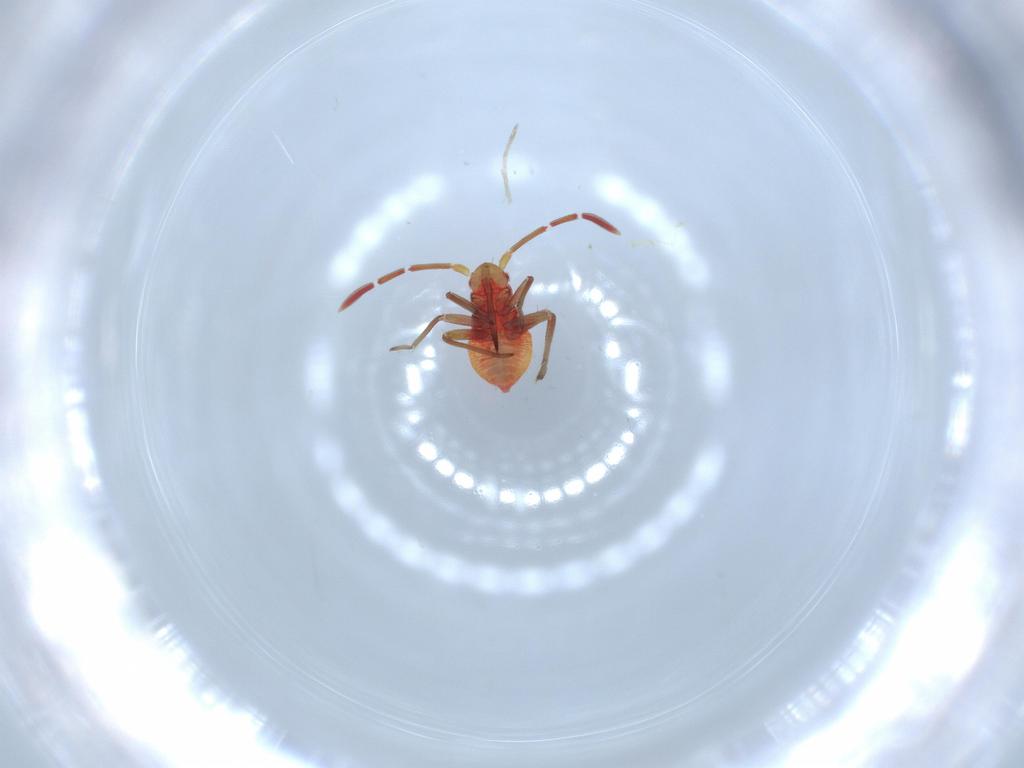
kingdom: Animalia
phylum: Arthropoda
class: Insecta
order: Hemiptera
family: Miridae
